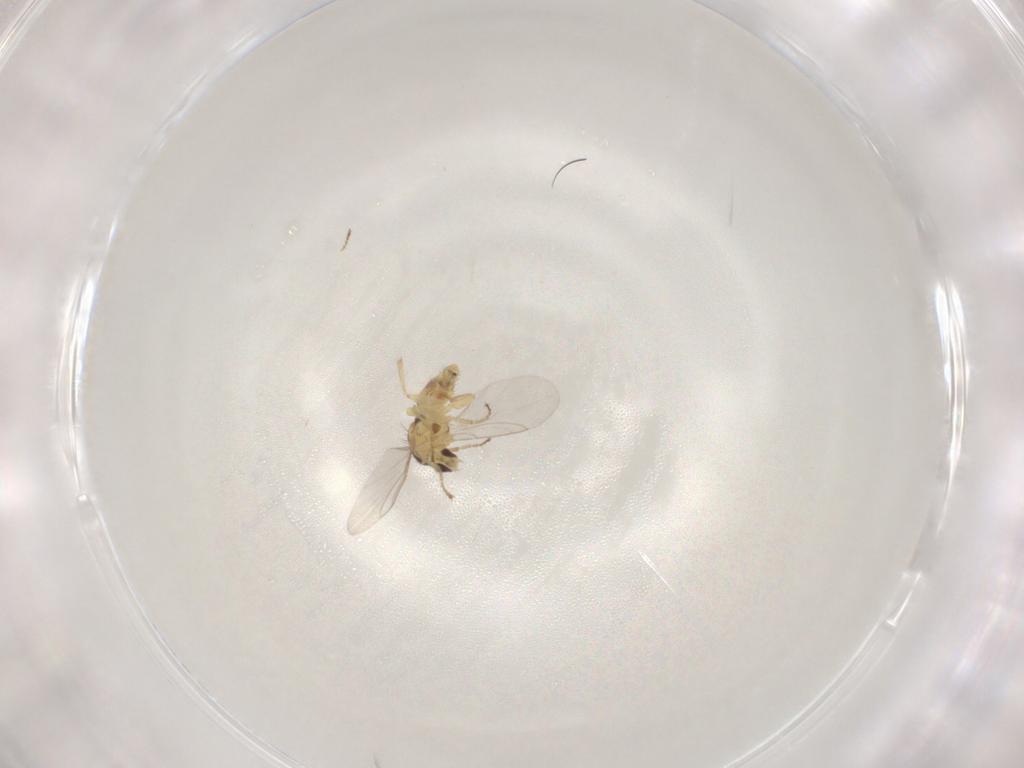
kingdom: Animalia
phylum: Arthropoda
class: Insecta
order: Diptera
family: Agromyzidae
